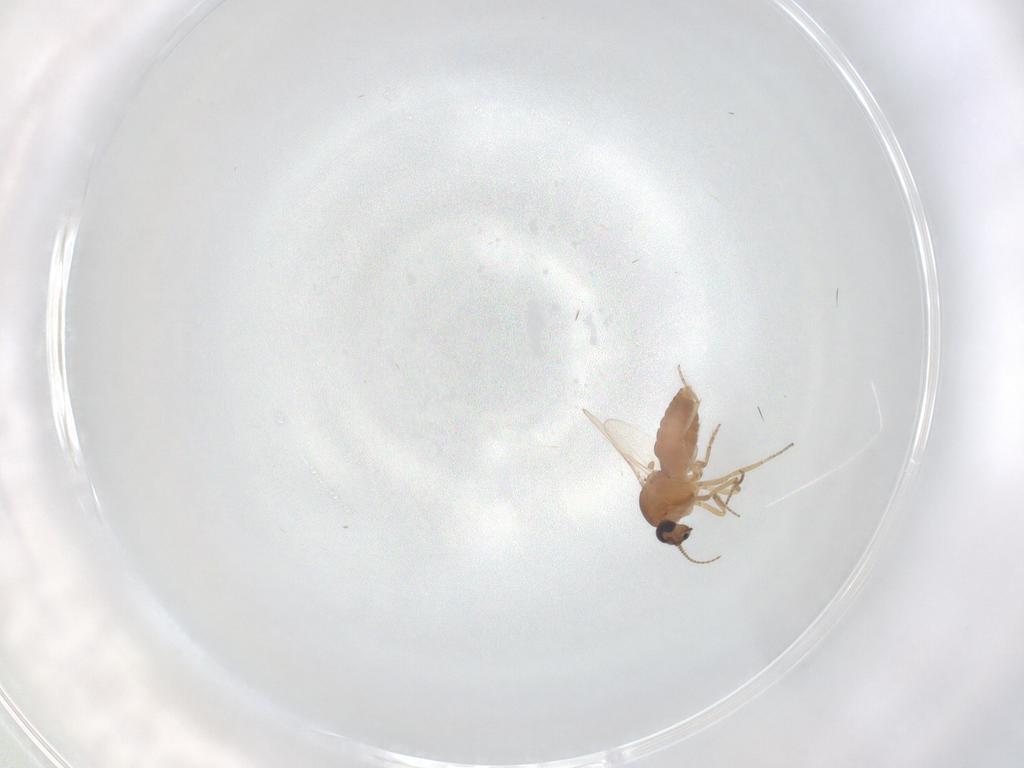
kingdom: Animalia
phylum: Arthropoda
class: Insecta
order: Diptera
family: Ceratopogonidae
